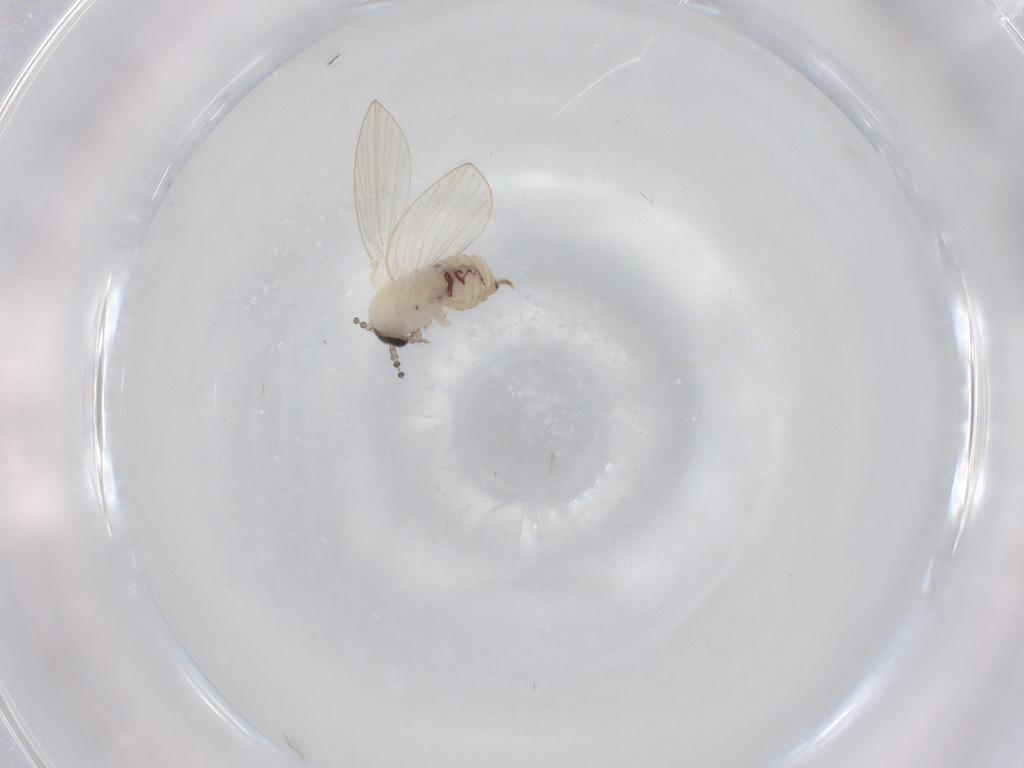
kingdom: Animalia
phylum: Arthropoda
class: Insecta
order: Diptera
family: Psychodidae
